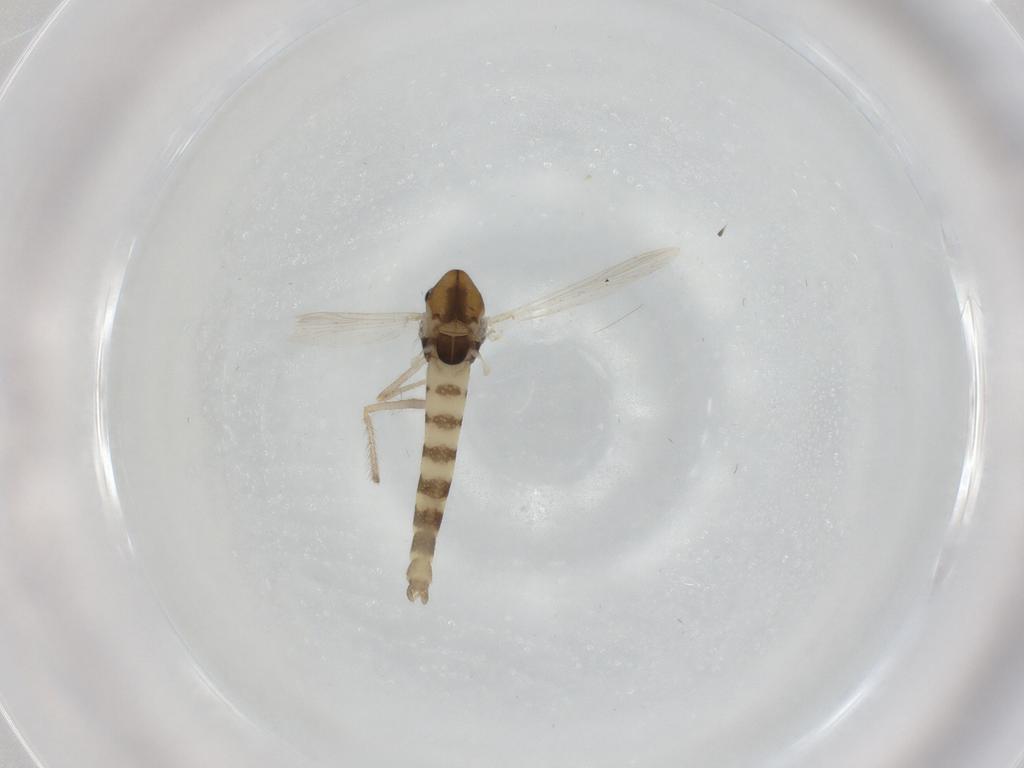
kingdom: Animalia
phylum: Arthropoda
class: Insecta
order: Diptera
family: Chironomidae
